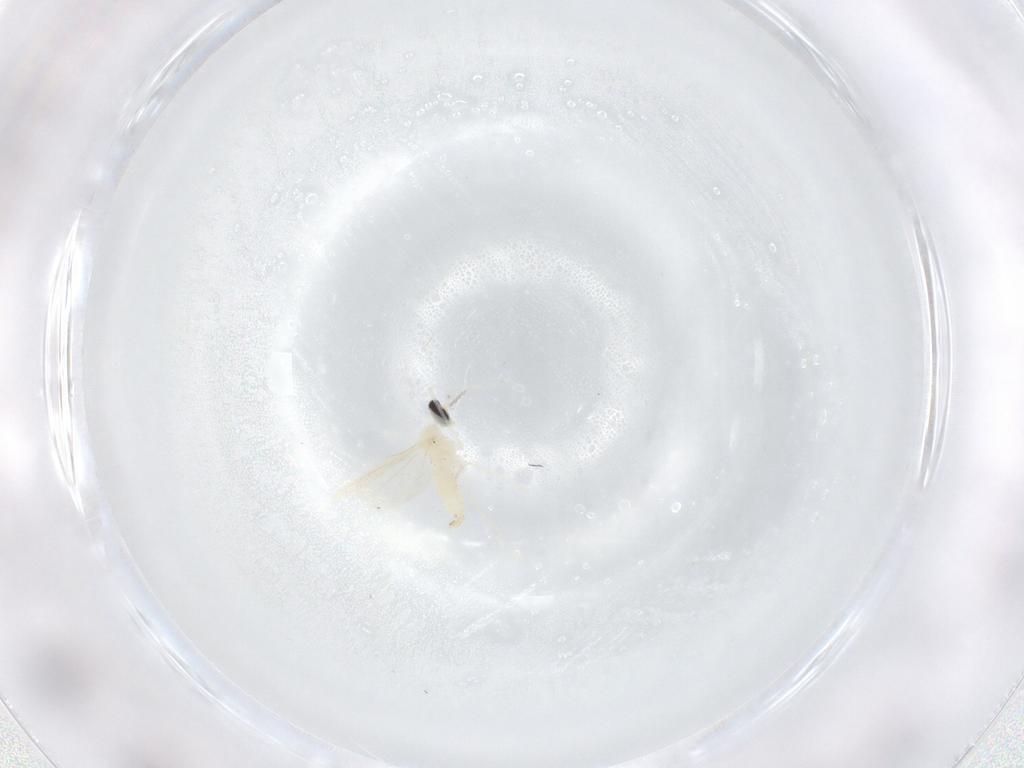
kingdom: Animalia
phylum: Arthropoda
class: Insecta
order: Diptera
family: Cecidomyiidae
